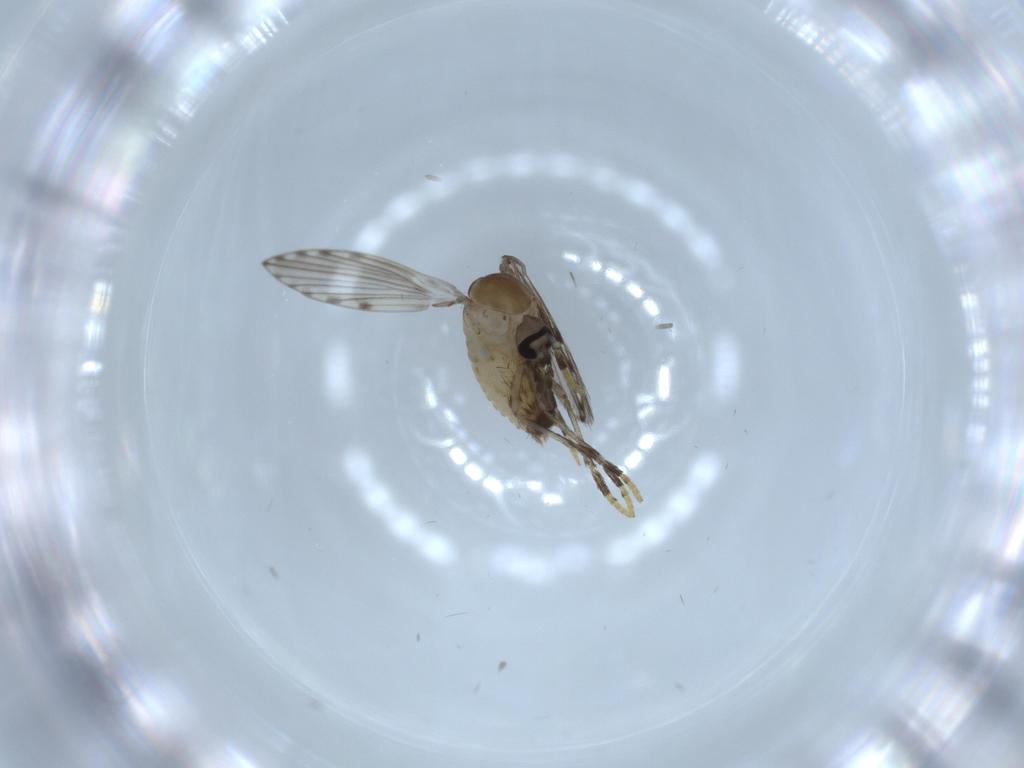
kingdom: Animalia
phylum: Arthropoda
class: Insecta
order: Diptera
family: Psychodidae
